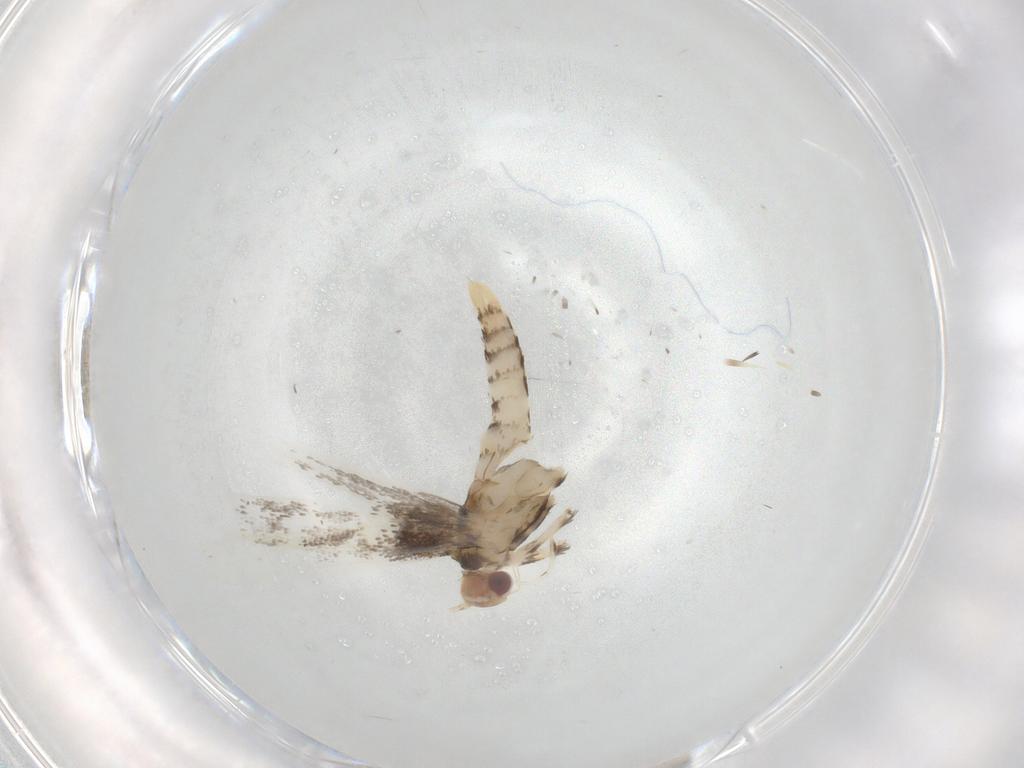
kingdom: Animalia
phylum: Arthropoda
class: Insecta
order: Lepidoptera
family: Gracillariidae
